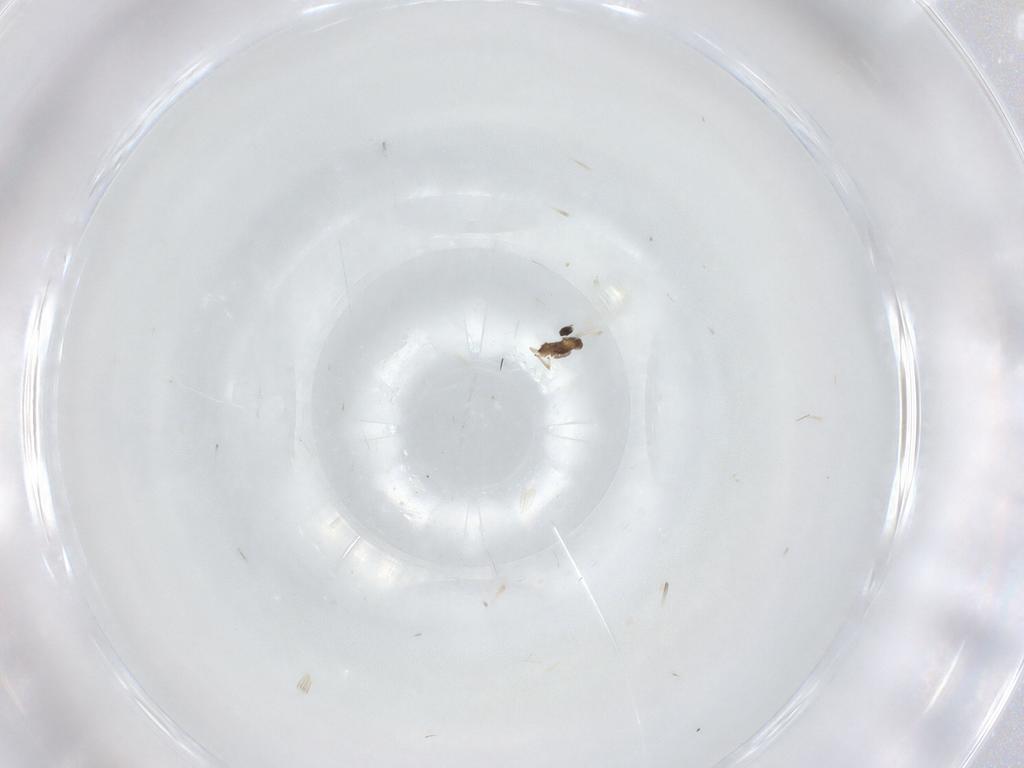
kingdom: Animalia
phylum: Arthropoda
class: Insecta
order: Diptera
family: Cecidomyiidae
